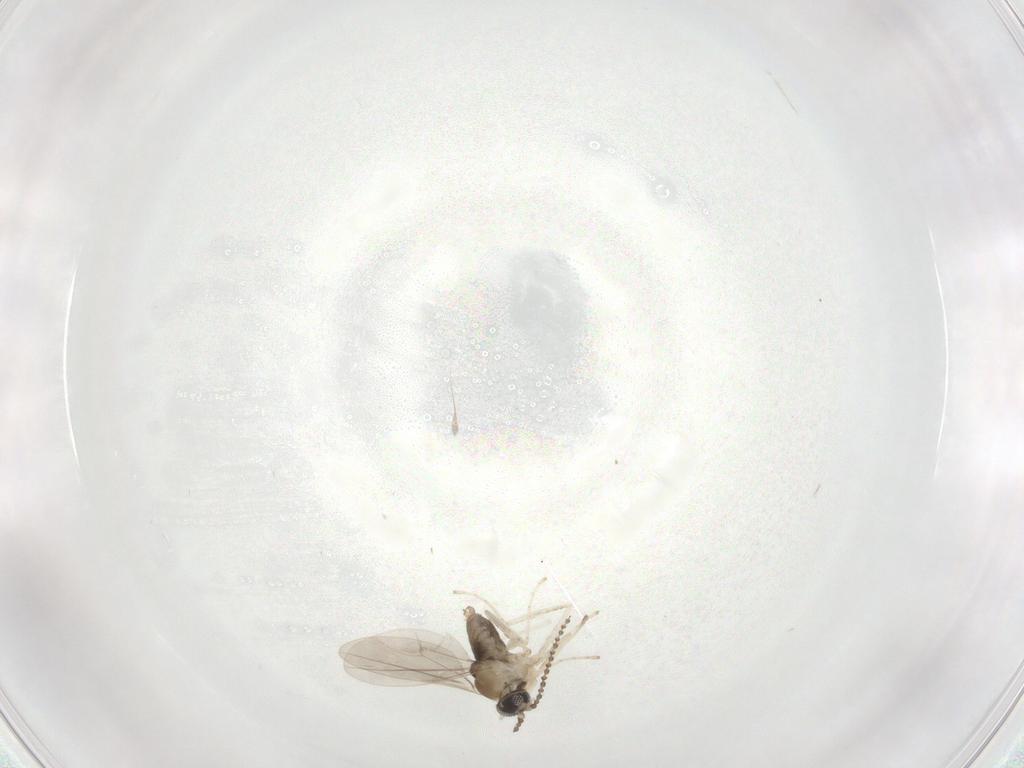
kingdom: Animalia
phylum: Arthropoda
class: Insecta
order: Diptera
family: Cecidomyiidae
